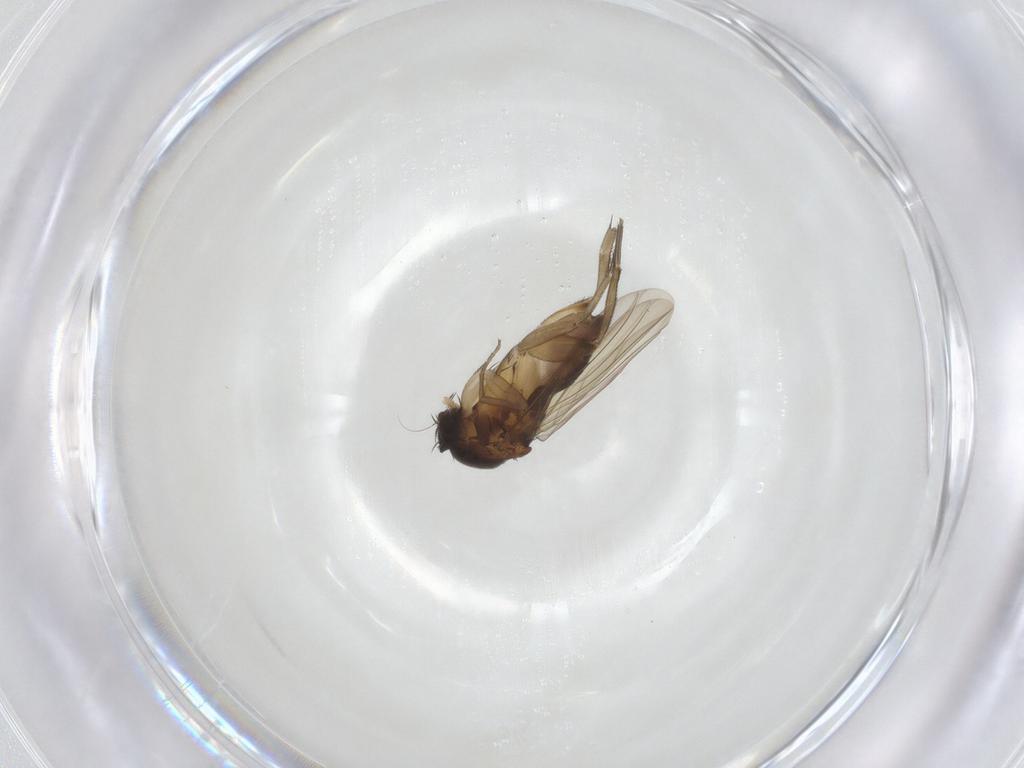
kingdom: Animalia
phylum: Arthropoda
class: Insecta
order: Diptera
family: Phoridae
